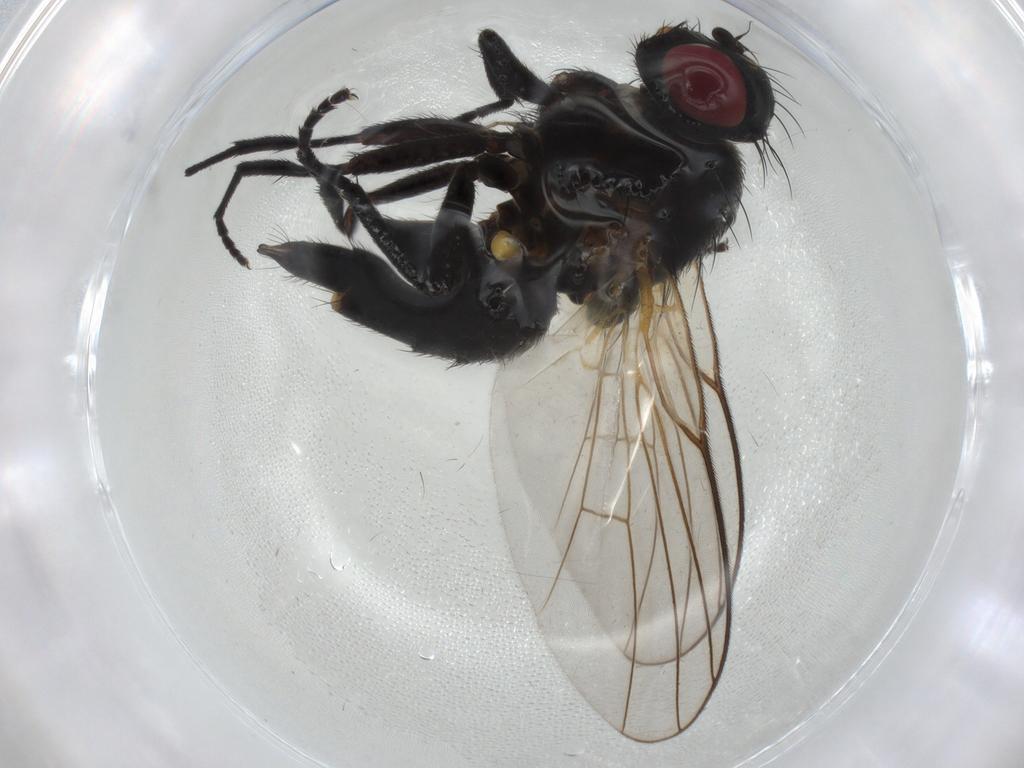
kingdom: Animalia
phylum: Arthropoda
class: Insecta
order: Diptera
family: Agromyzidae
